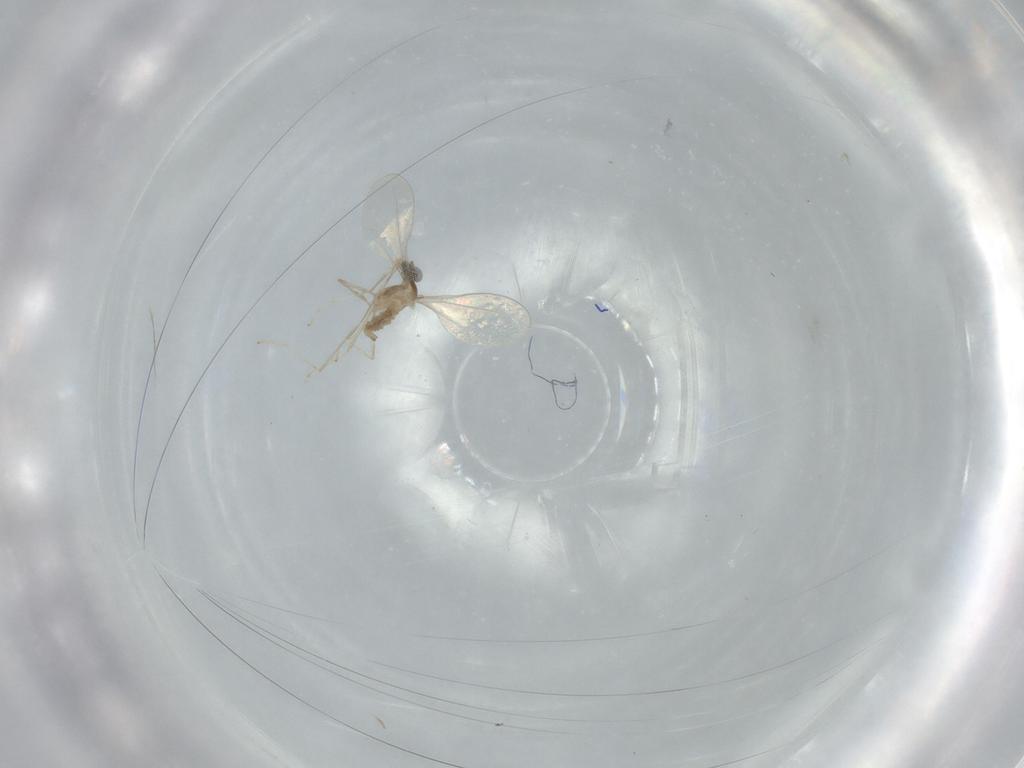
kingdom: Animalia
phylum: Arthropoda
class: Insecta
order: Diptera
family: Cecidomyiidae
